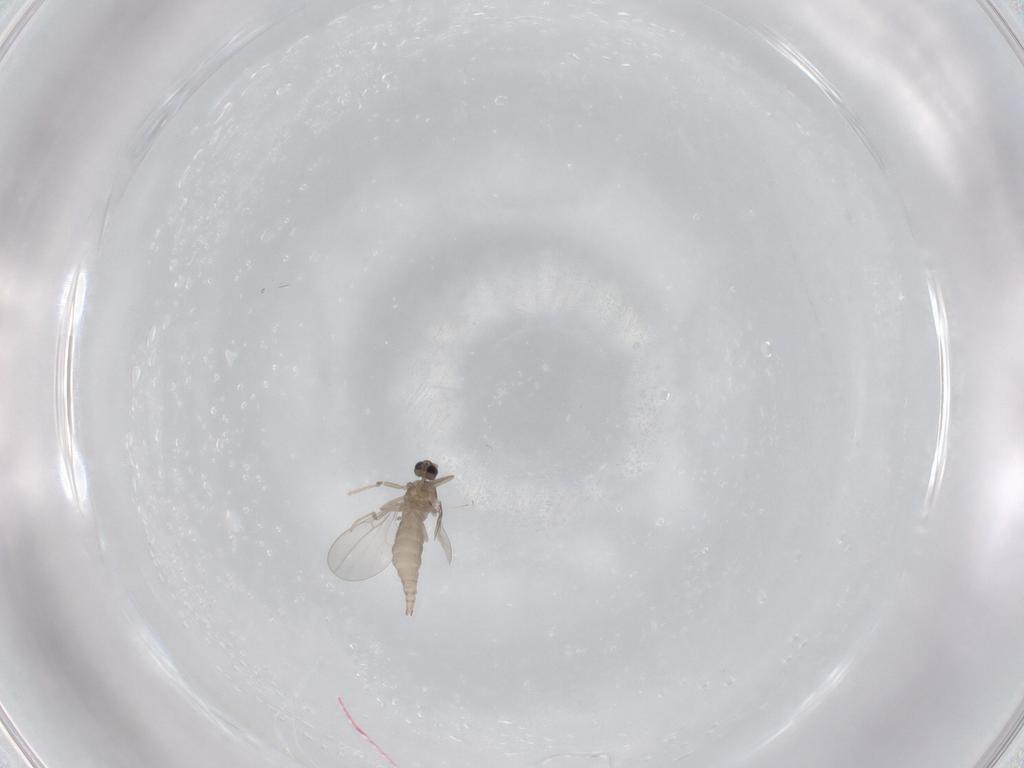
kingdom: Animalia
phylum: Arthropoda
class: Insecta
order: Diptera
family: Cecidomyiidae
